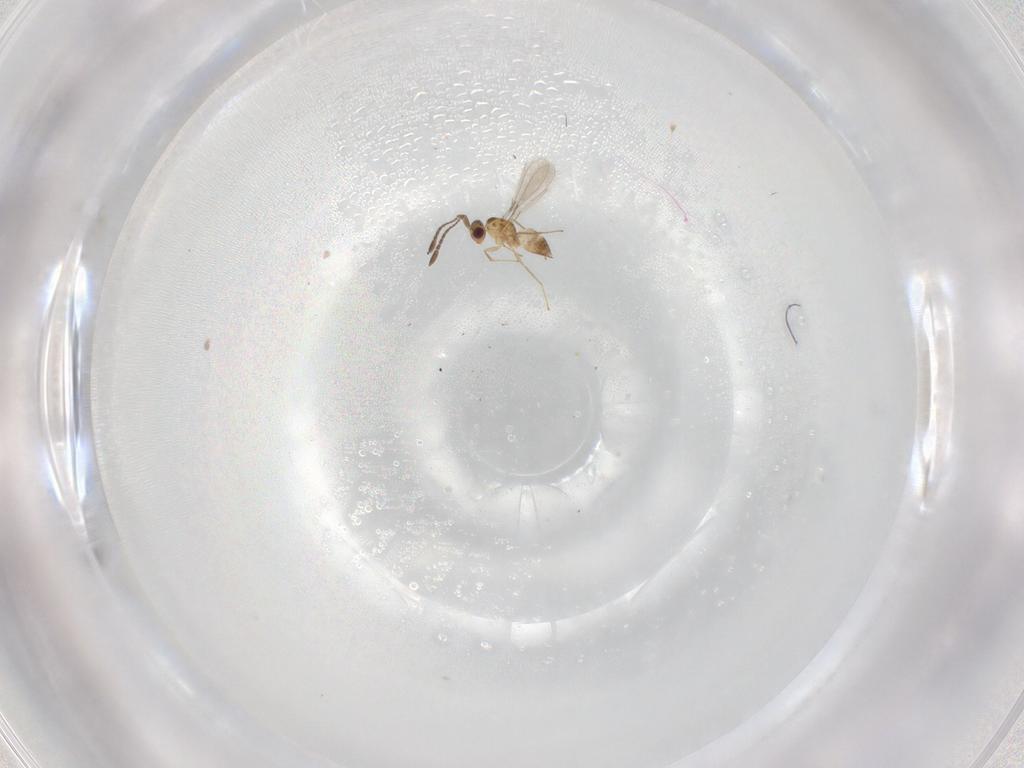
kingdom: Animalia
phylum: Arthropoda
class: Insecta
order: Hymenoptera
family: Mymaridae
